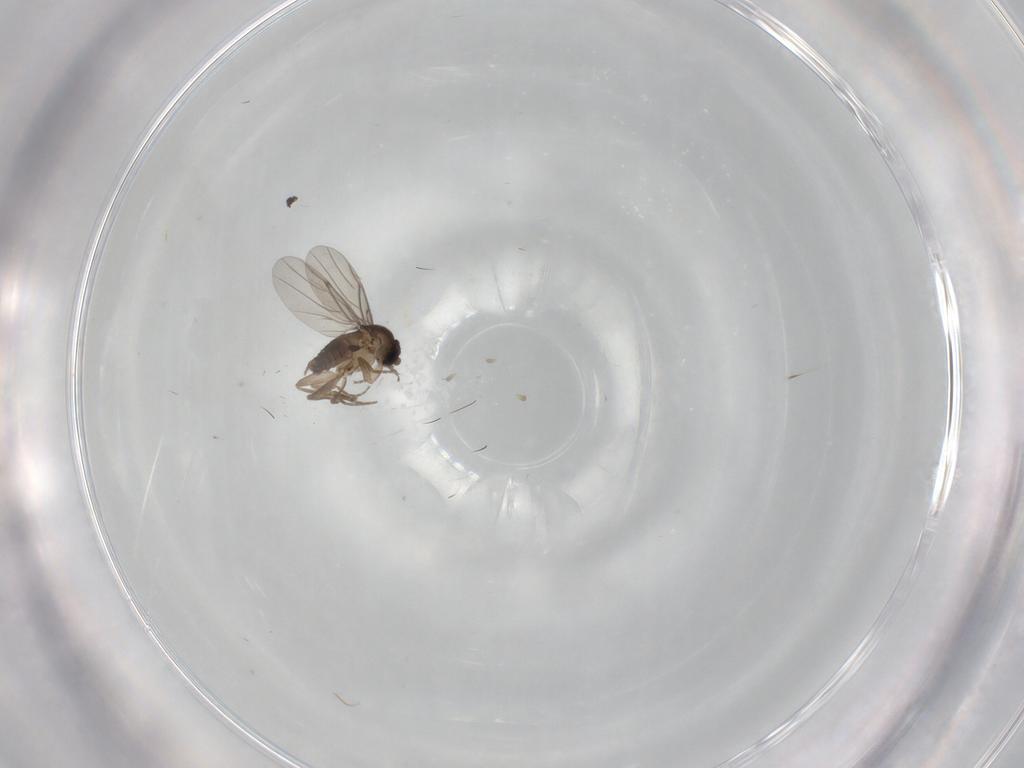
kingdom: Animalia
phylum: Arthropoda
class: Insecta
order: Diptera
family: Phoridae
